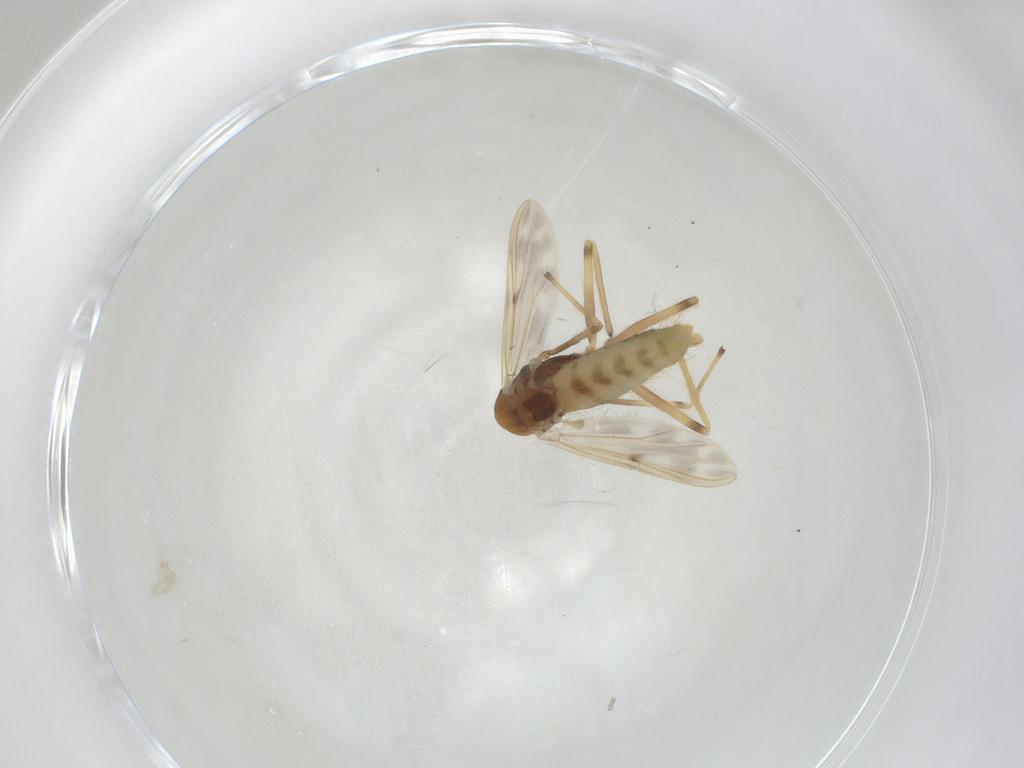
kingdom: Animalia
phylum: Arthropoda
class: Insecta
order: Diptera
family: Chironomidae
